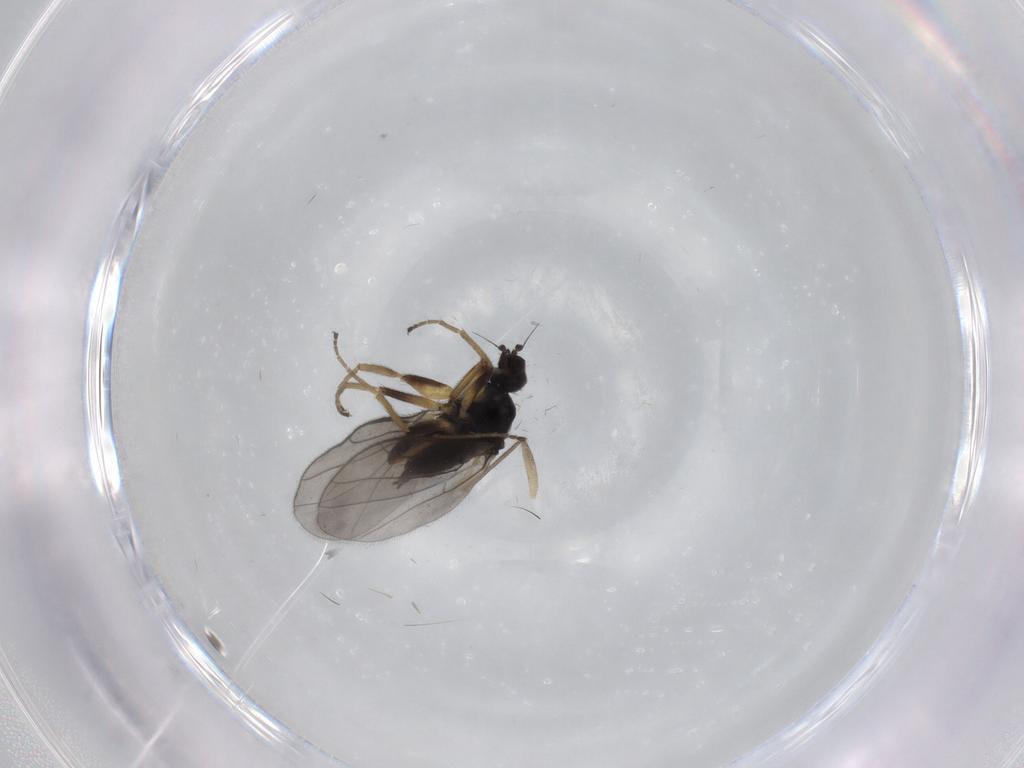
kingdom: Animalia
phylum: Arthropoda
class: Insecta
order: Diptera
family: Hybotidae
